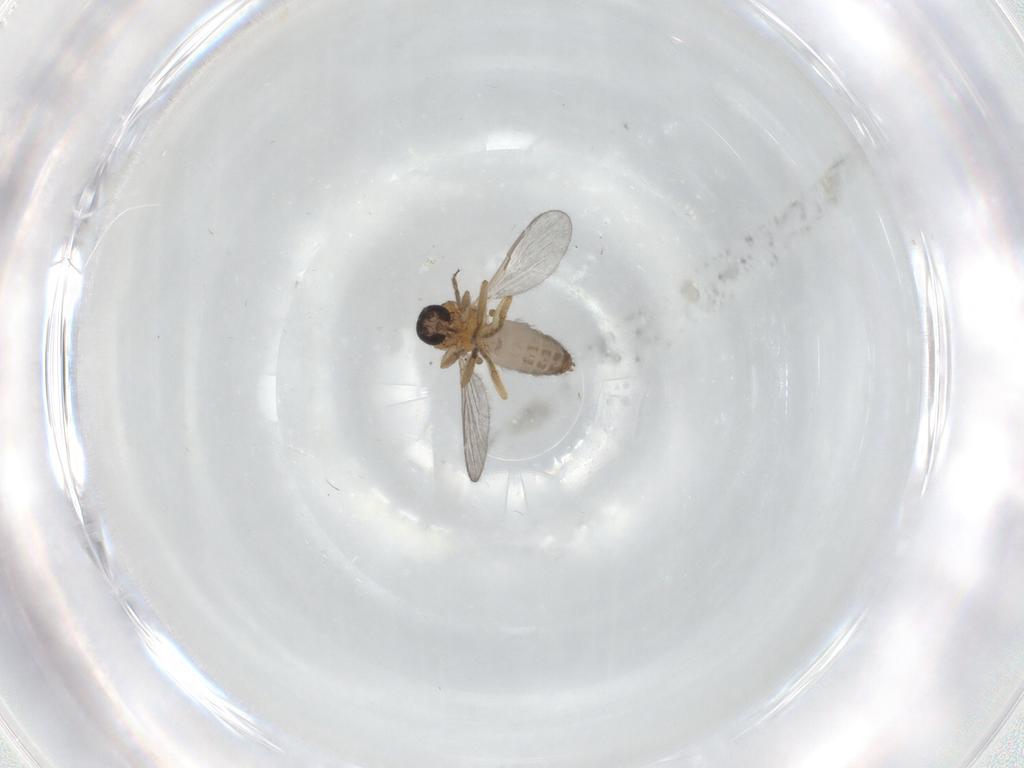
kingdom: Animalia
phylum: Arthropoda
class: Insecta
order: Diptera
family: Ceratopogonidae
